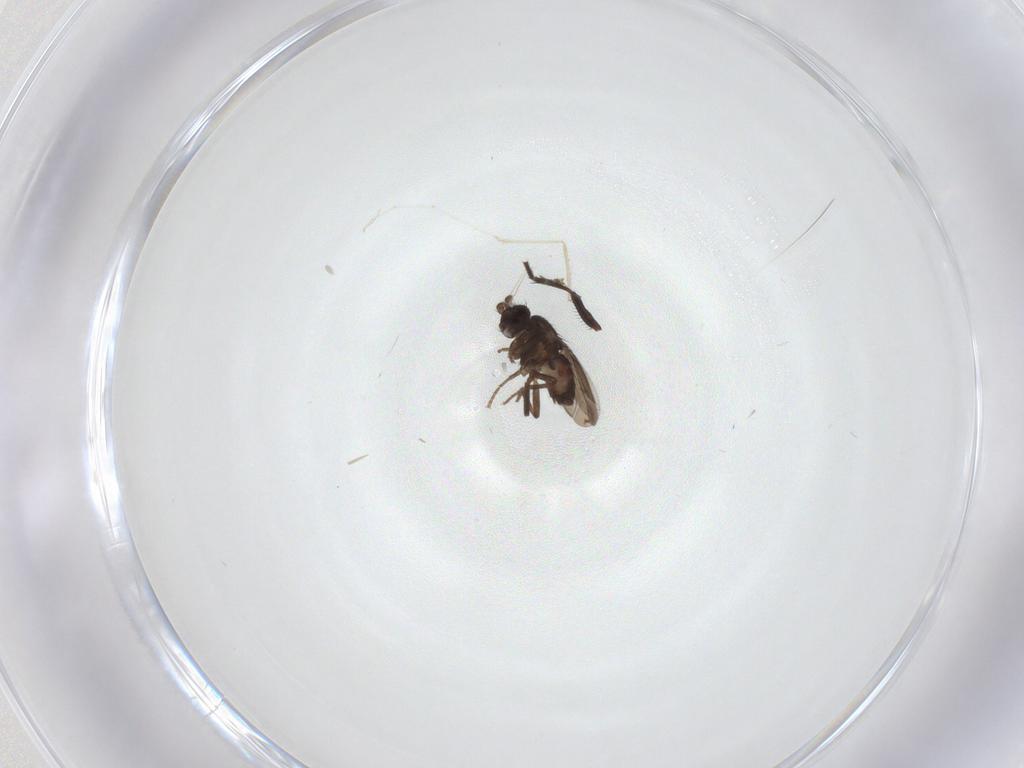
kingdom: Animalia
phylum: Arthropoda
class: Insecta
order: Diptera
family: Cecidomyiidae
